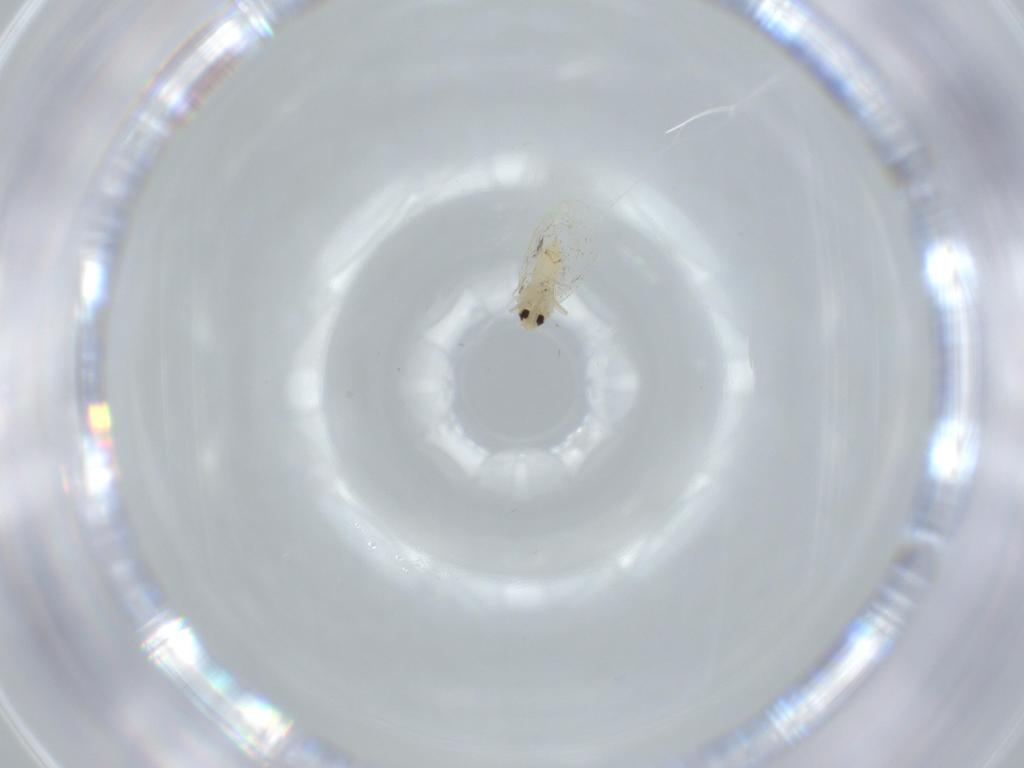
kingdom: Animalia
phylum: Arthropoda
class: Insecta
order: Hemiptera
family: Aleyrodidae
